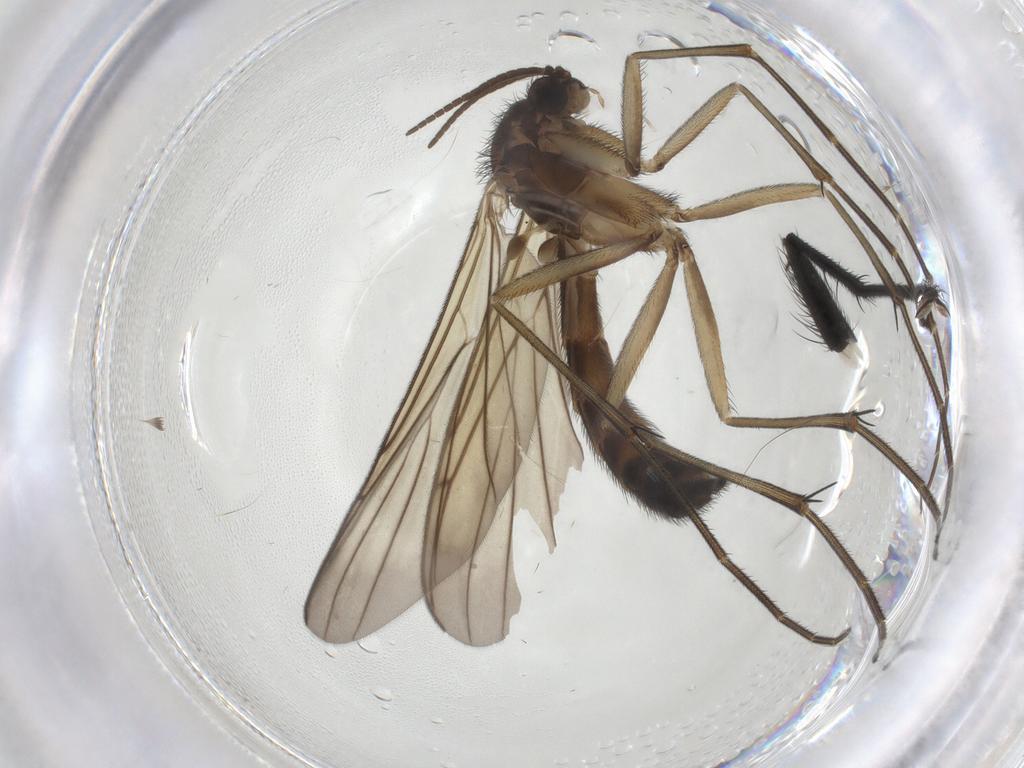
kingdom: Animalia
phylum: Arthropoda
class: Insecta
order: Diptera
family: Keroplatidae
